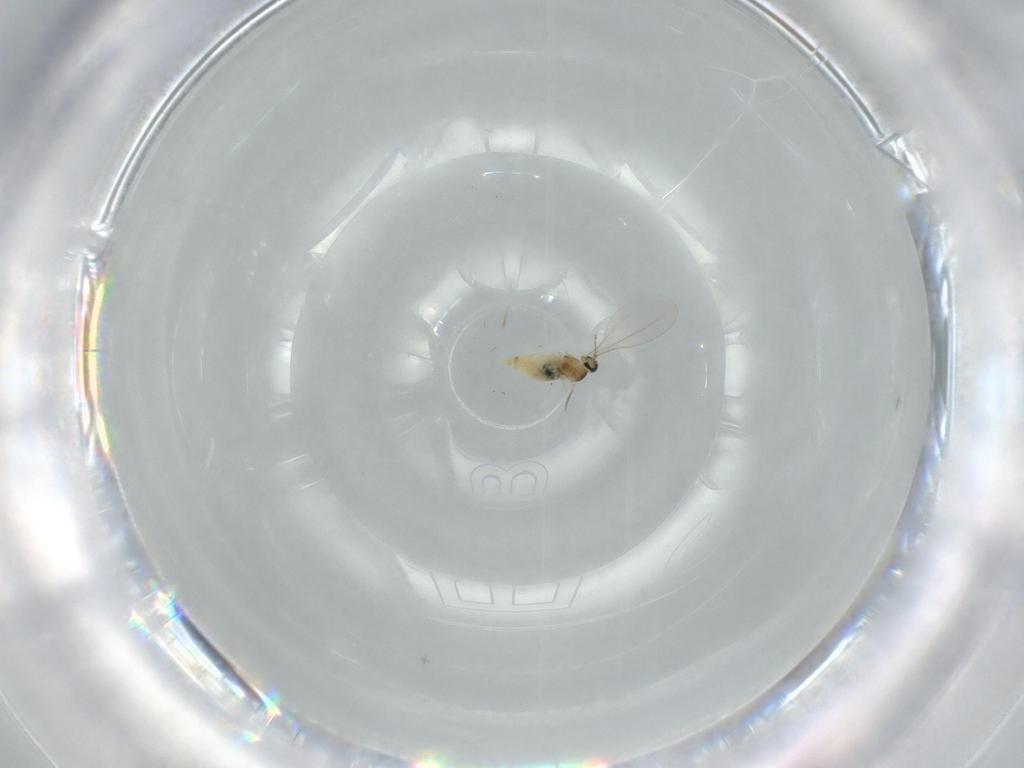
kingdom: Animalia
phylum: Arthropoda
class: Insecta
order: Diptera
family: Cecidomyiidae
